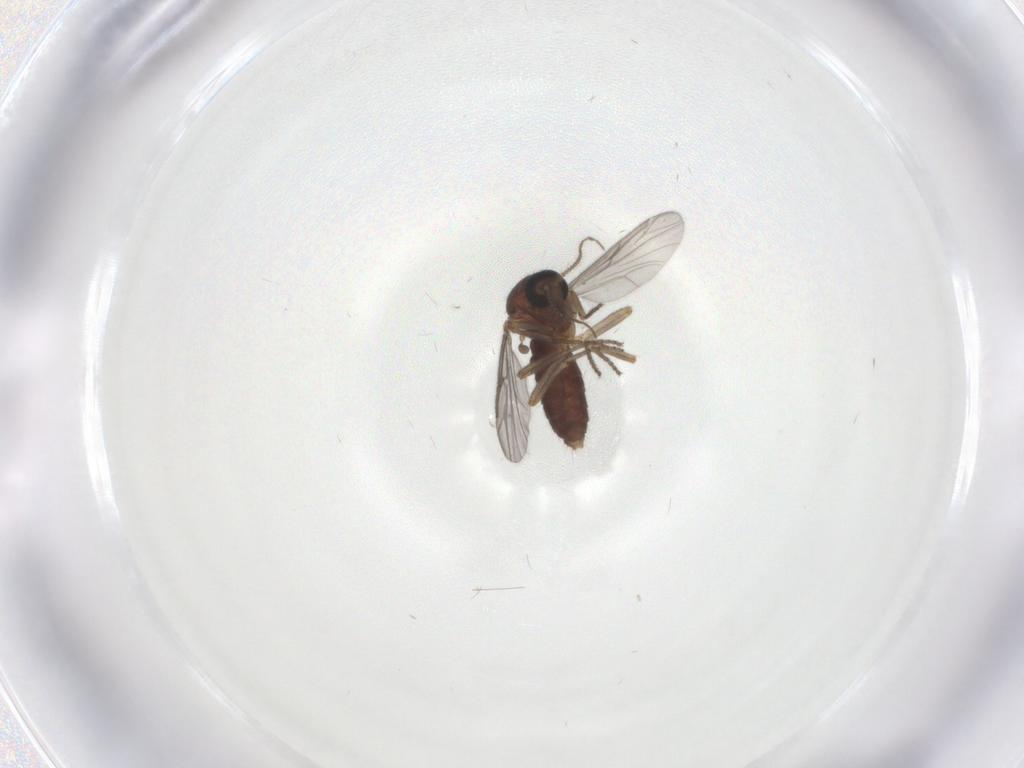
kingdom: Animalia
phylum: Arthropoda
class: Insecta
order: Diptera
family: Ceratopogonidae
